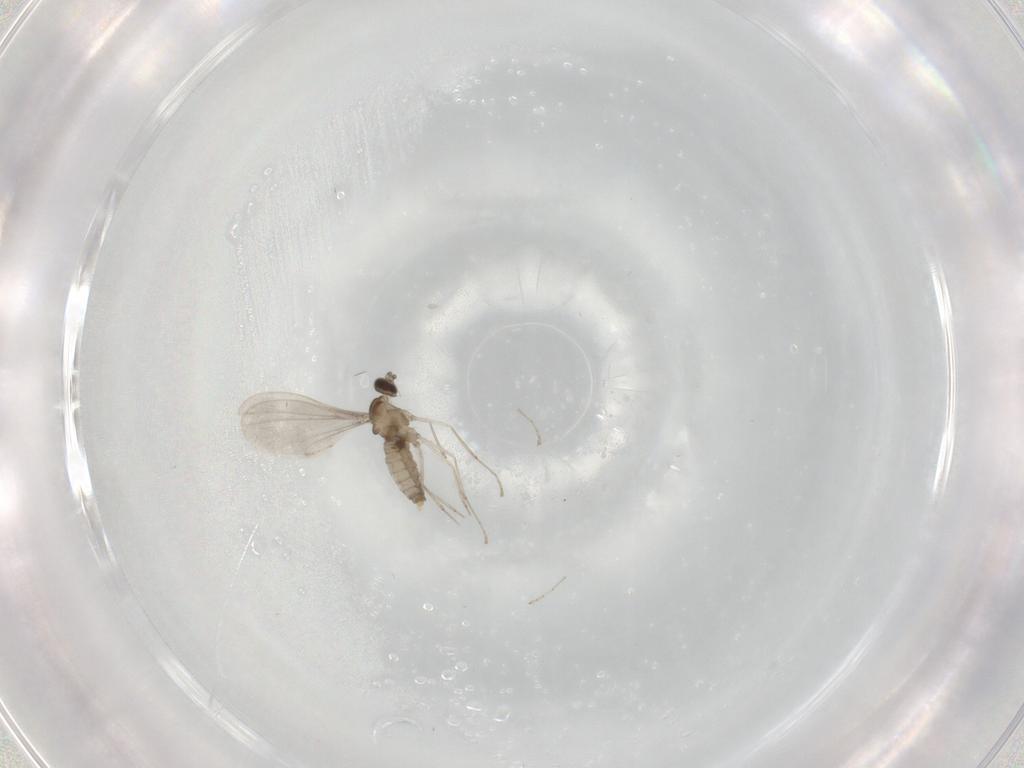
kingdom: Animalia
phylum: Arthropoda
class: Insecta
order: Diptera
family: Cecidomyiidae
